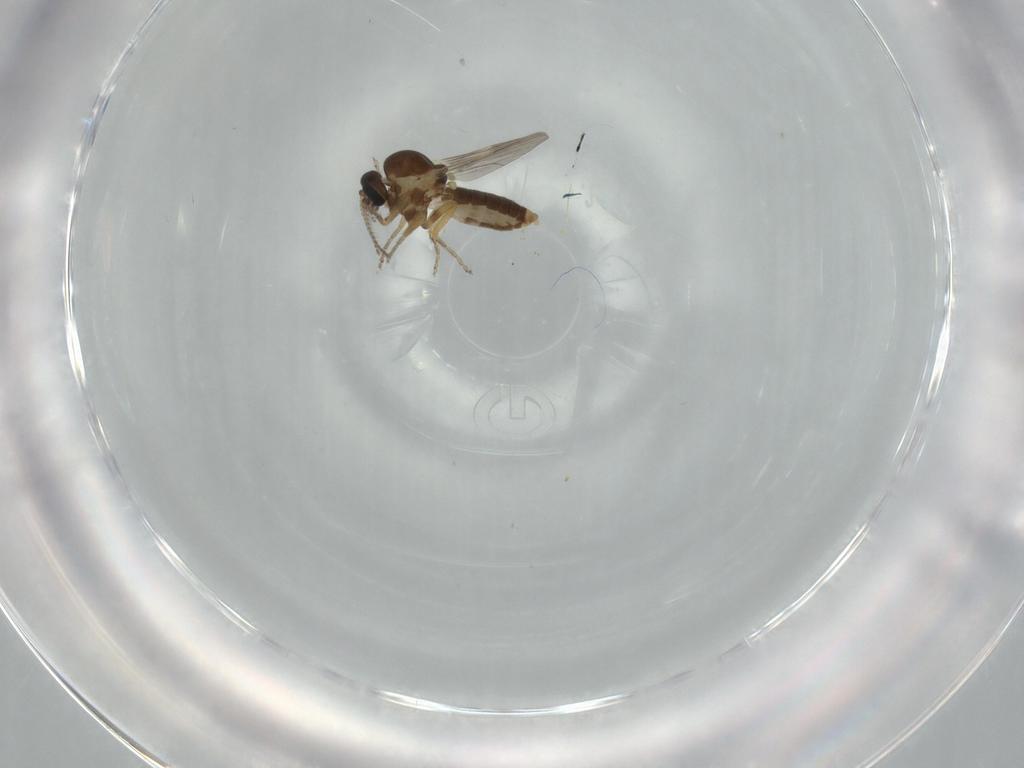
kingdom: Animalia
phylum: Arthropoda
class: Insecta
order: Diptera
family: Ceratopogonidae
